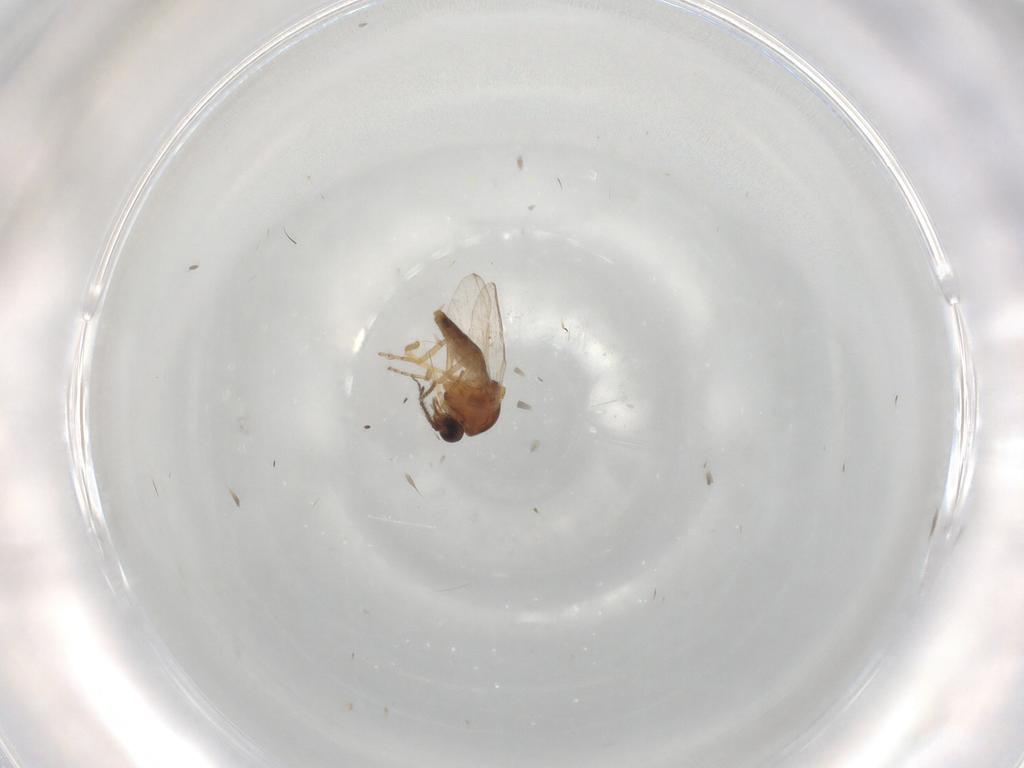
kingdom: Animalia
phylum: Arthropoda
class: Insecta
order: Diptera
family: Ceratopogonidae
